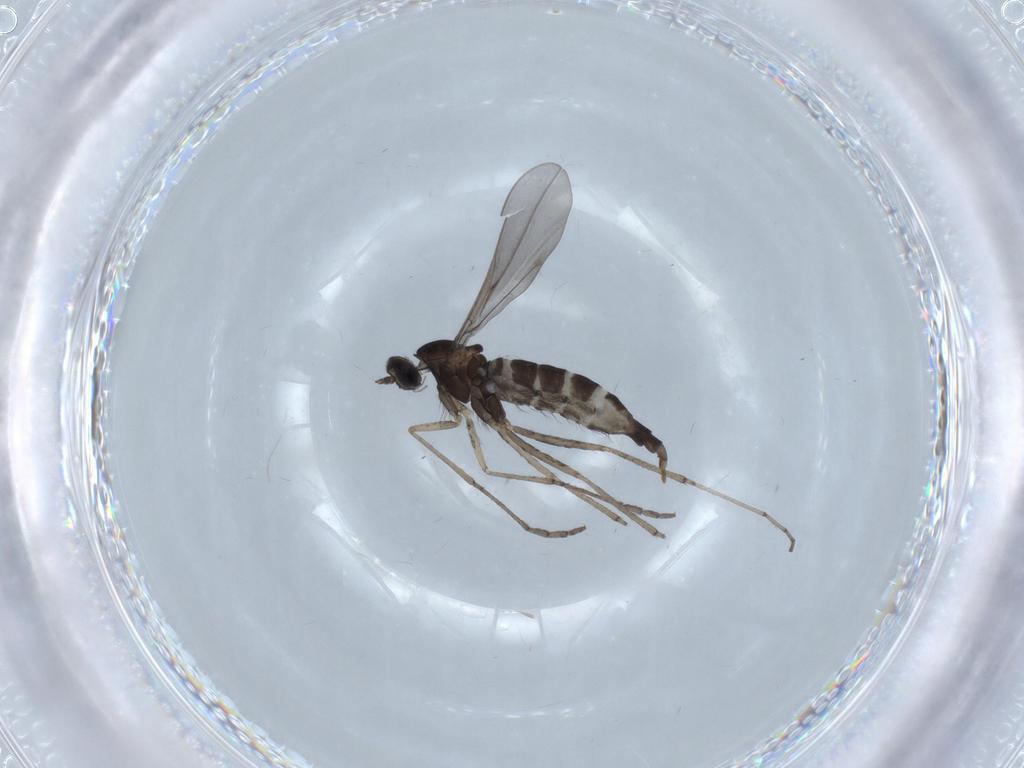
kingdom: Animalia
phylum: Arthropoda
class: Insecta
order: Diptera
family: Cecidomyiidae
